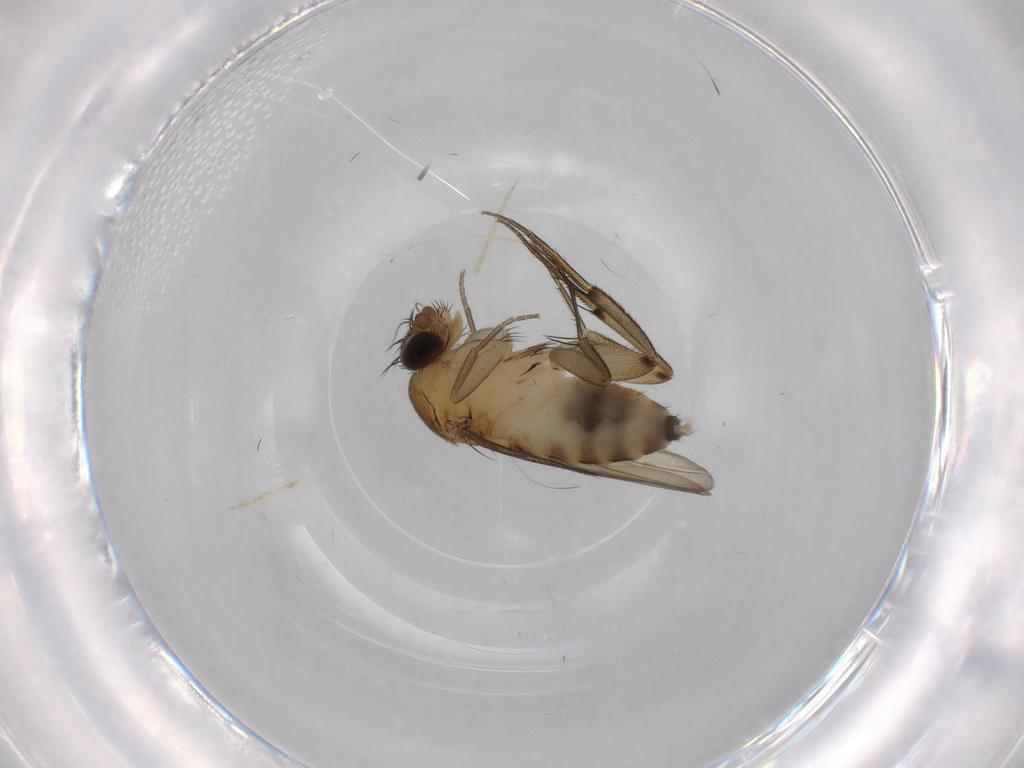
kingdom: Animalia
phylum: Arthropoda
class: Insecta
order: Diptera
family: Phoridae
